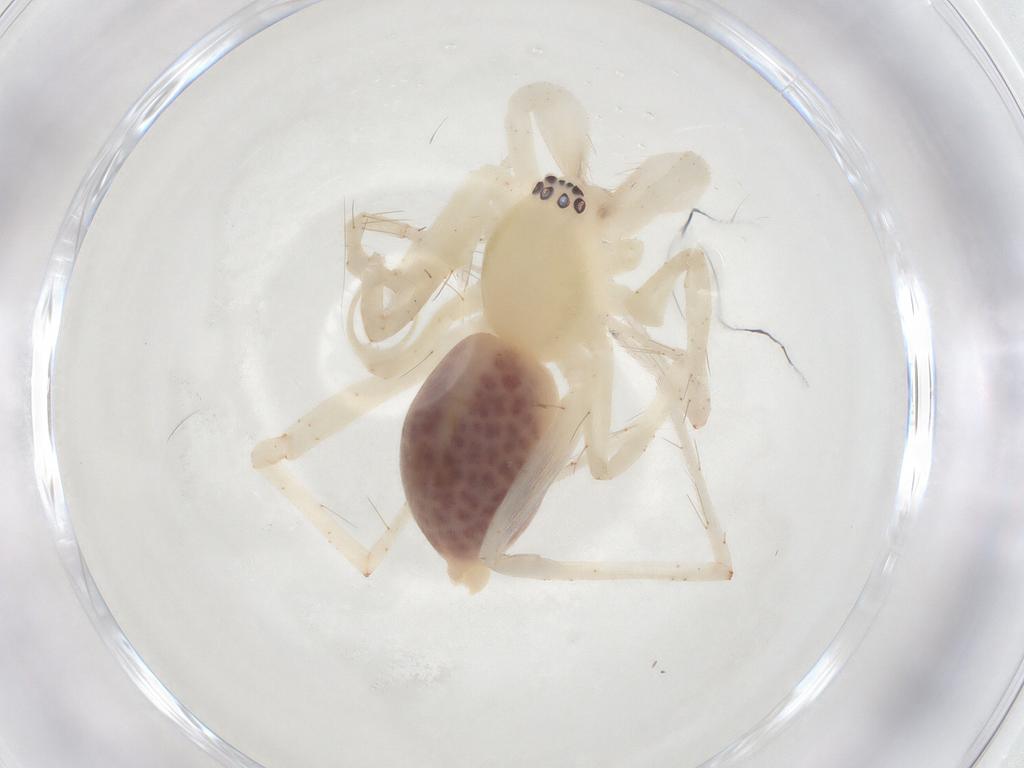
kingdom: Animalia
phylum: Arthropoda
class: Arachnida
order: Araneae
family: Anyphaenidae
